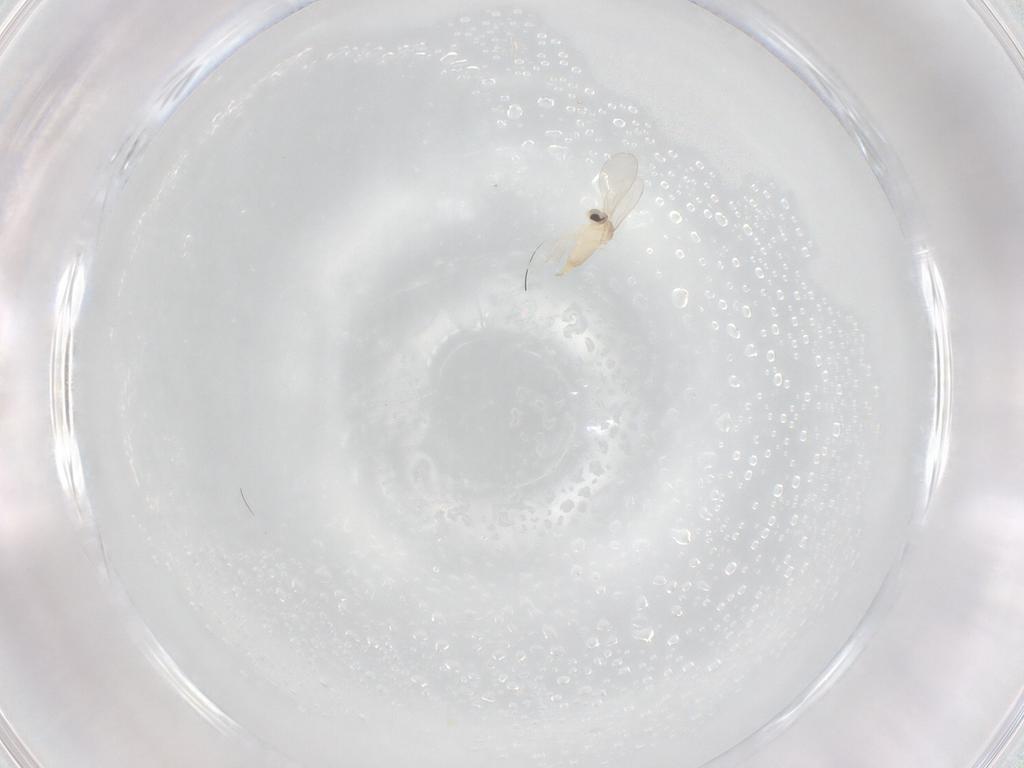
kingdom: Animalia
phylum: Arthropoda
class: Insecta
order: Diptera
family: Cecidomyiidae
